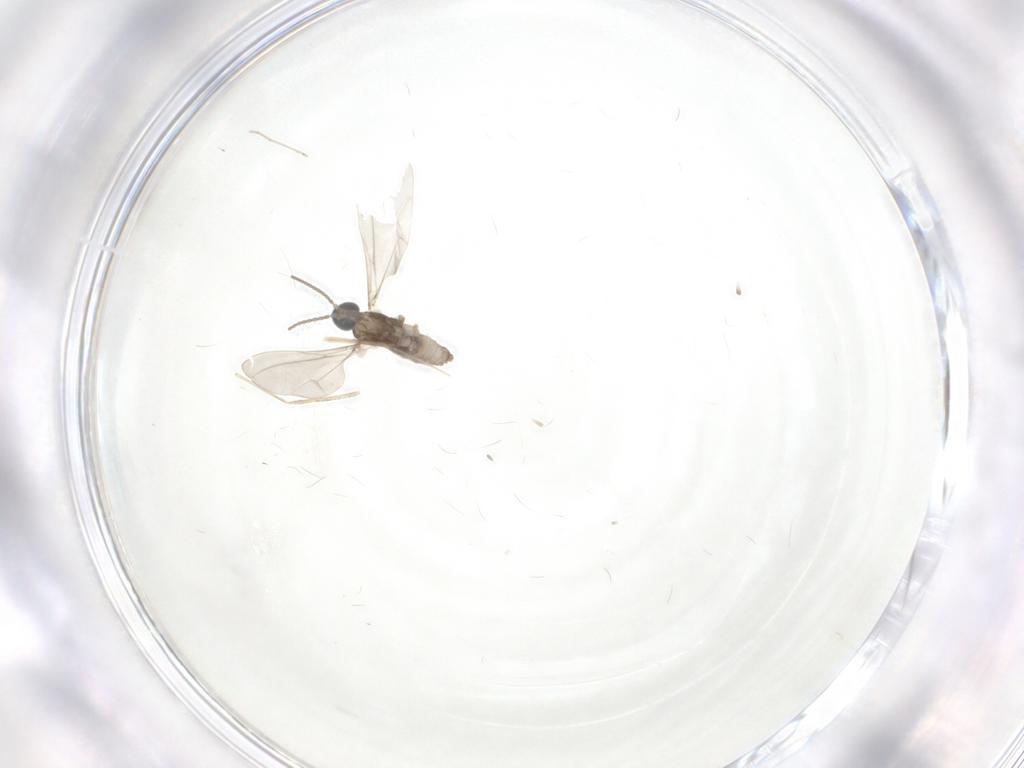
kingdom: Animalia
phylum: Arthropoda
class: Insecta
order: Diptera
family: Cecidomyiidae
